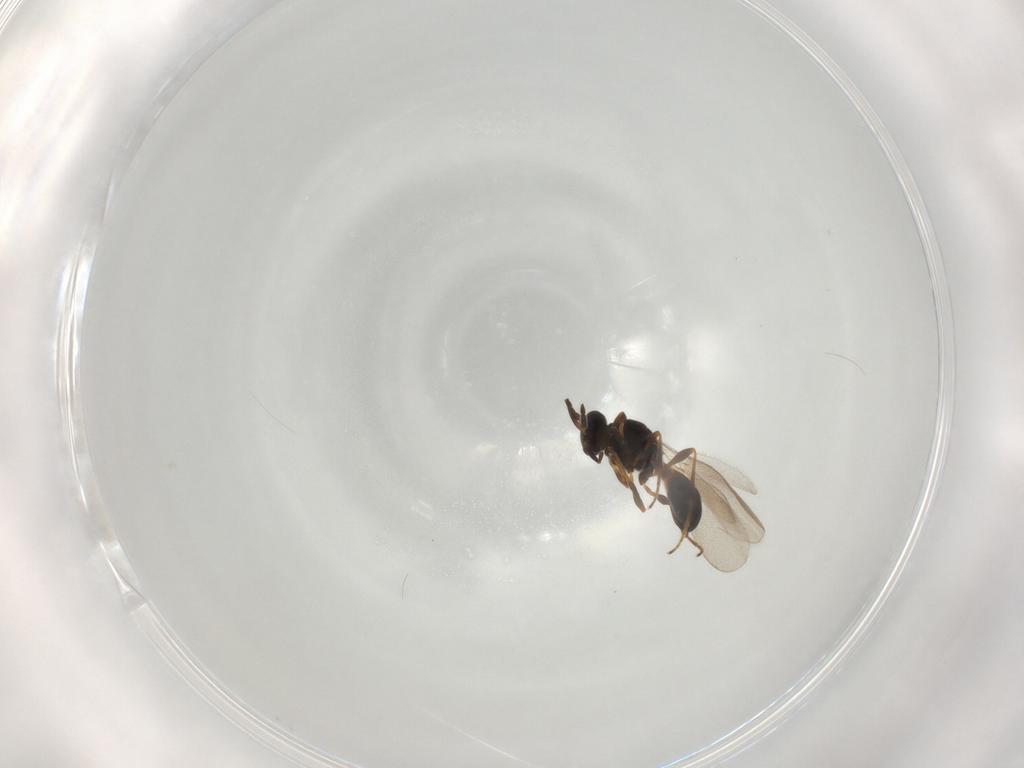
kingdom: Animalia
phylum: Arthropoda
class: Insecta
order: Hymenoptera
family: Platygastridae
